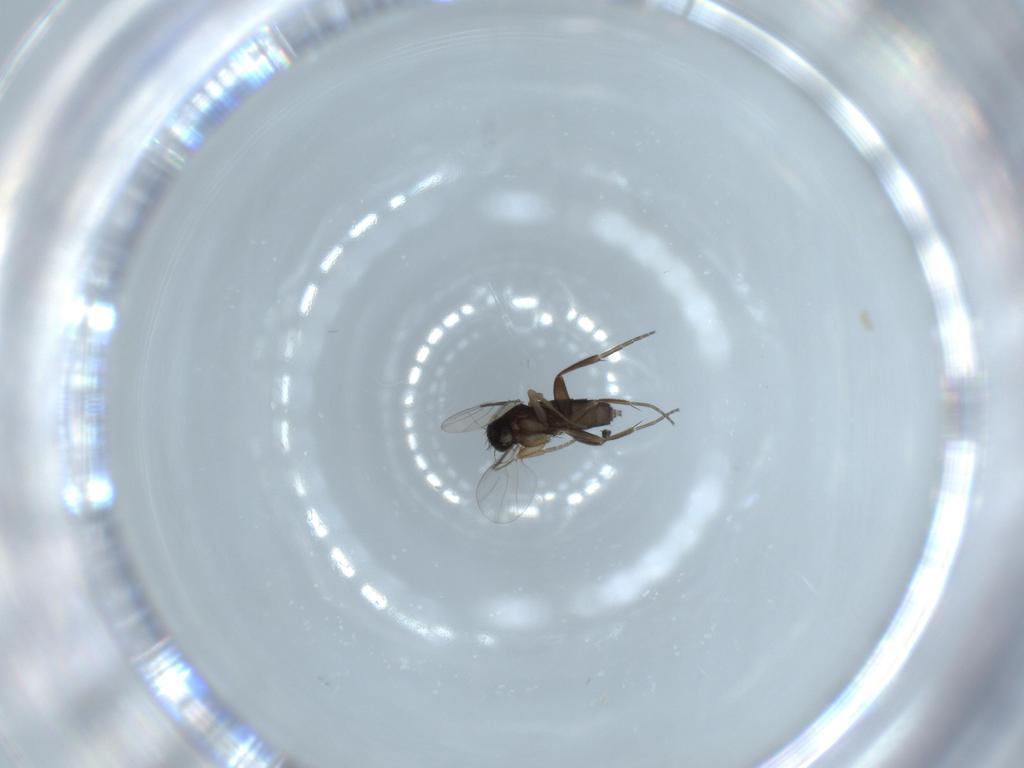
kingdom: Animalia
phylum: Arthropoda
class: Insecta
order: Diptera
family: Phoridae
